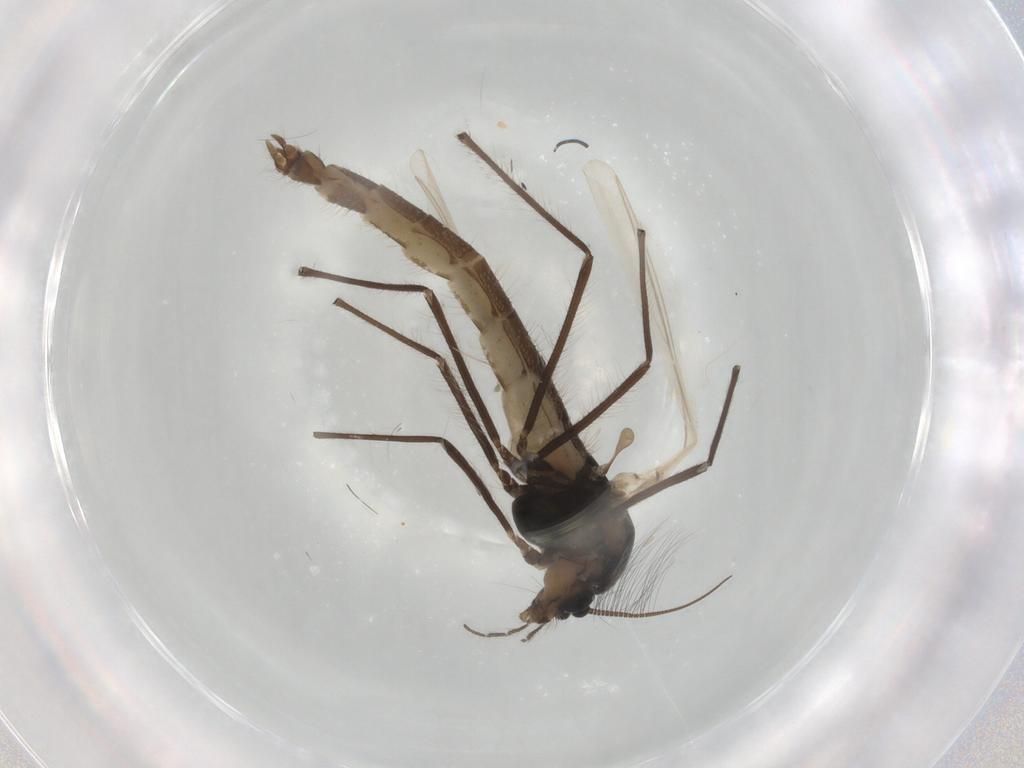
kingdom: Animalia
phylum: Arthropoda
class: Insecta
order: Diptera
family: Chironomidae
